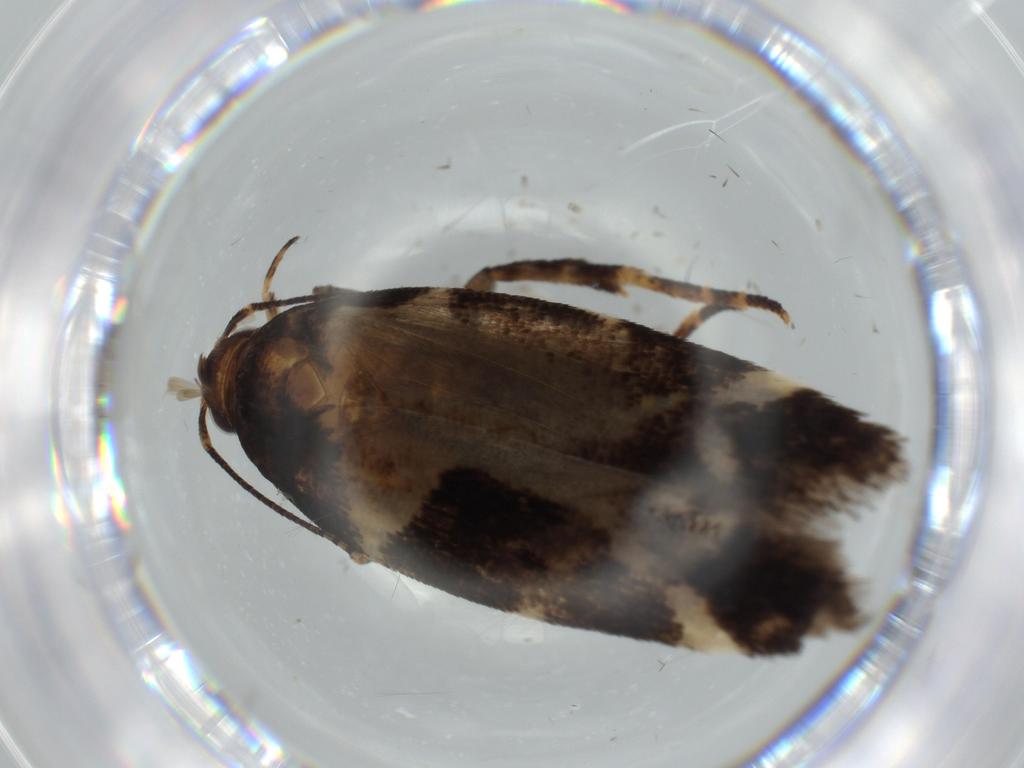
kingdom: Animalia
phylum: Arthropoda
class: Insecta
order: Lepidoptera
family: Gelechiidae
